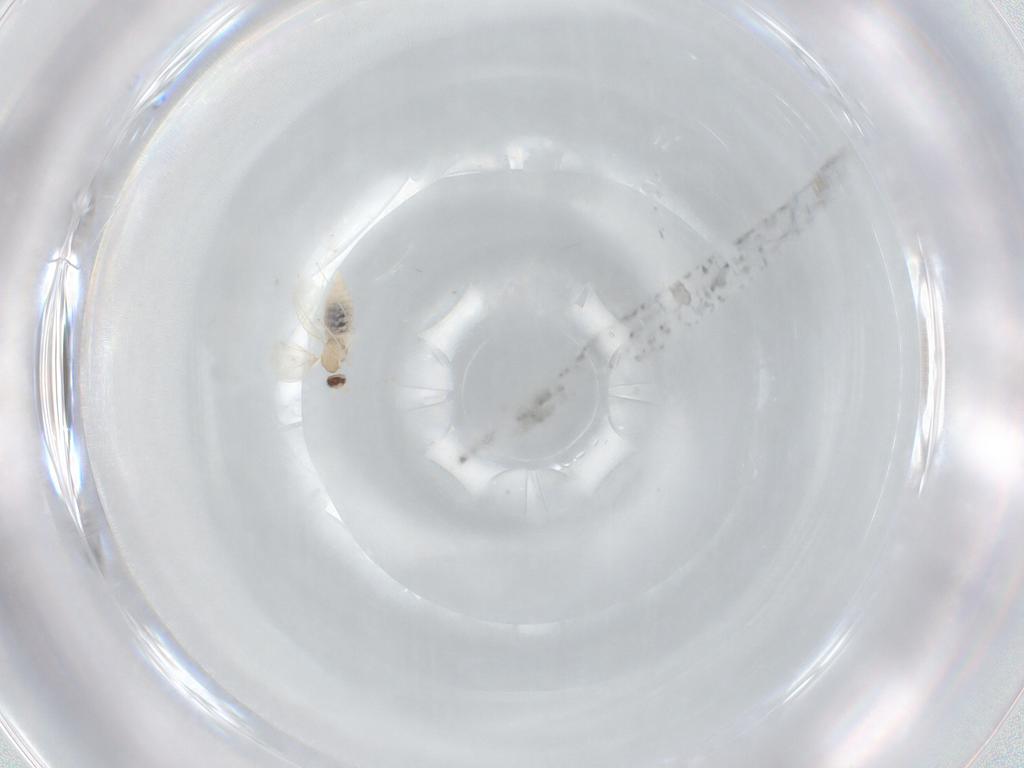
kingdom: Animalia
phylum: Arthropoda
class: Insecta
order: Diptera
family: Cecidomyiidae
